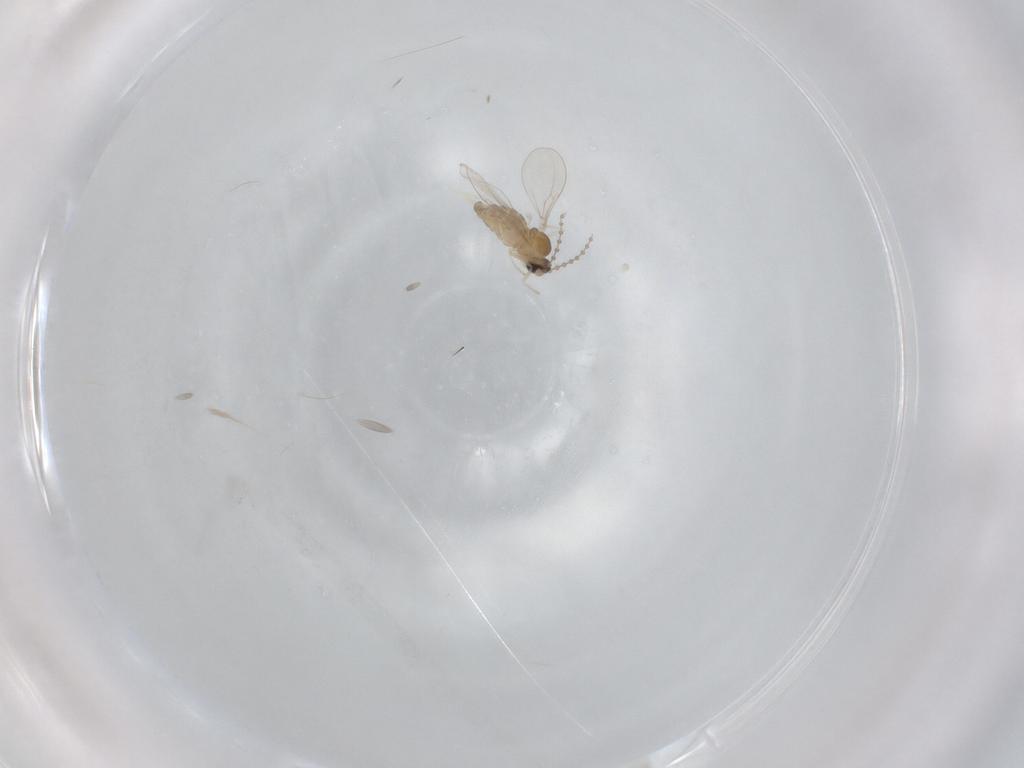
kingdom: Animalia
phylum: Arthropoda
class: Insecta
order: Diptera
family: Cecidomyiidae
